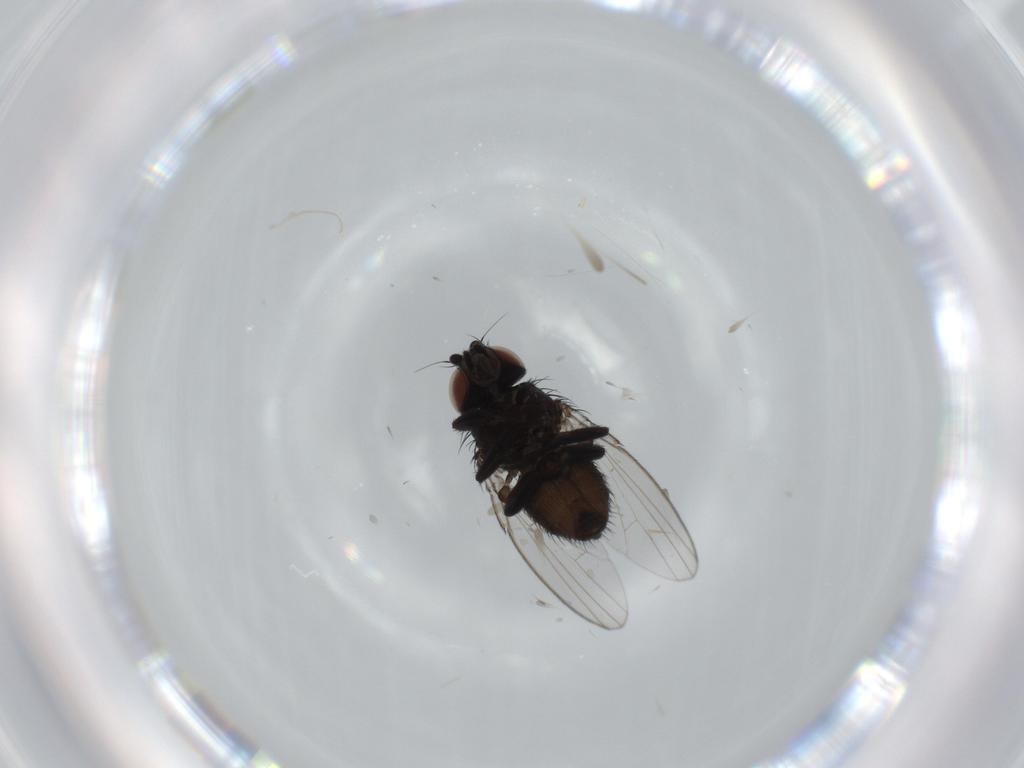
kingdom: Animalia
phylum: Arthropoda
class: Insecta
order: Diptera
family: Milichiidae
